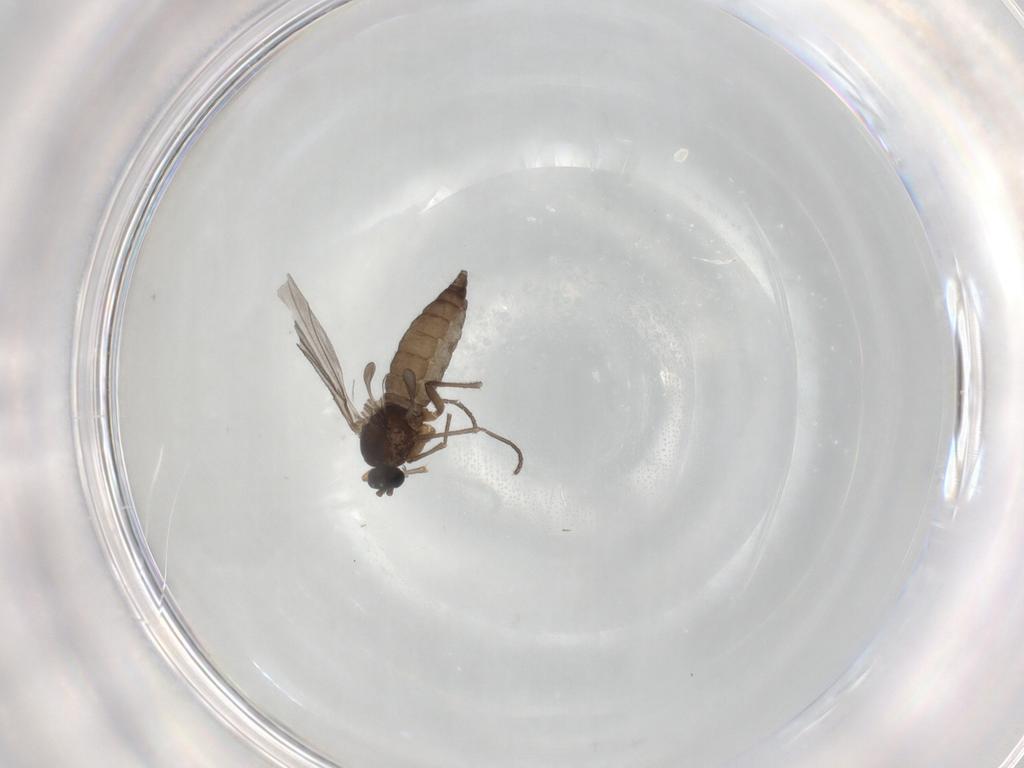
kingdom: Animalia
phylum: Arthropoda
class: Insecta
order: Diptera
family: Sciaridae
